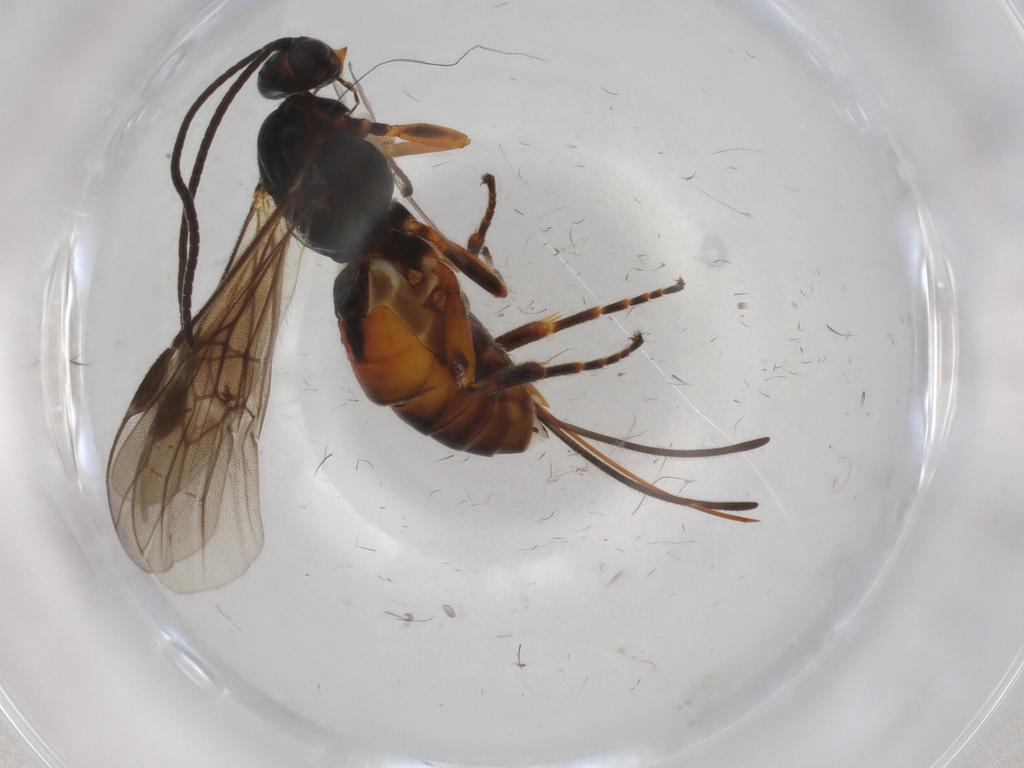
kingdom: Animalia
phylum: Arthropoda
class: Insecta
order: Hymenoptera
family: Braconidae
